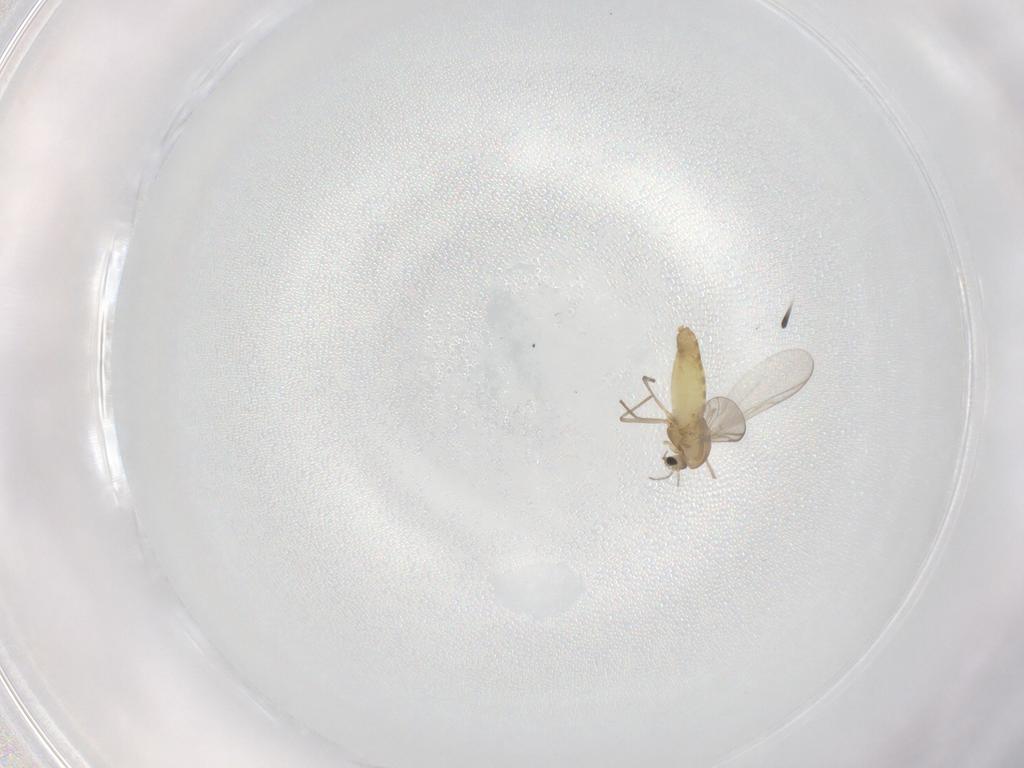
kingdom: Animalia
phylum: Arthropoda
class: Insecta
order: Diptera
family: Chironomidae
